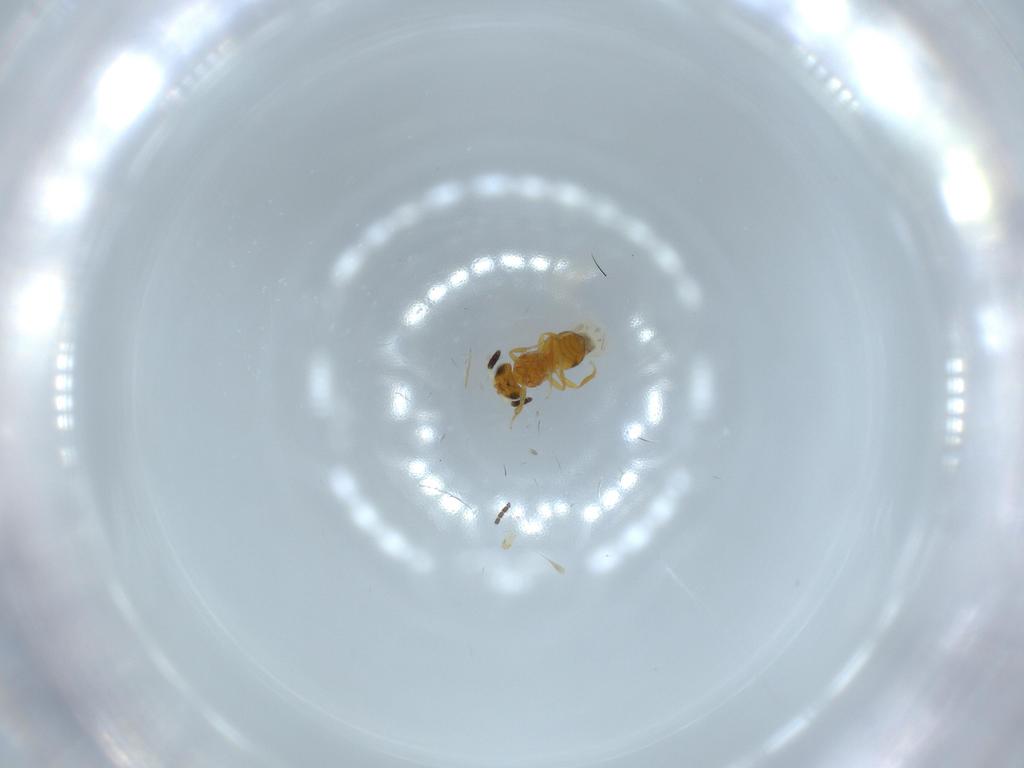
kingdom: Animalia
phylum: Arthropoda
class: Insecta
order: Hymenoptera
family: Scelionidae
